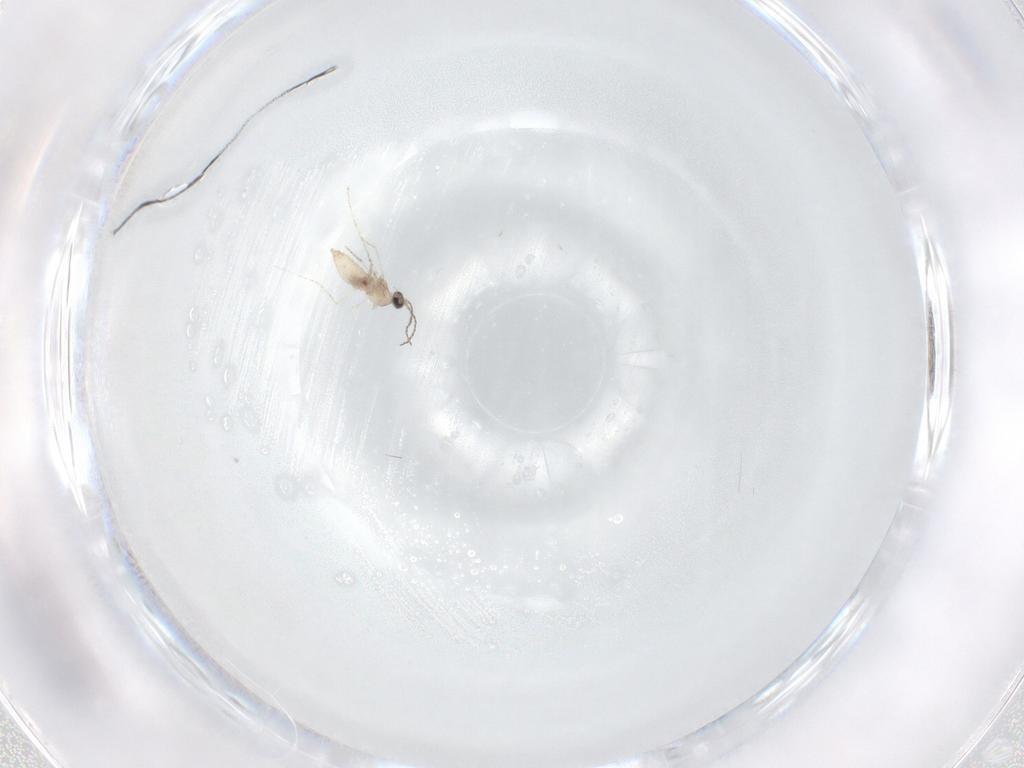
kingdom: Animalia
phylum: Arthropoda
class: Insecta
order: Diptera
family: Cecidomyiidae
